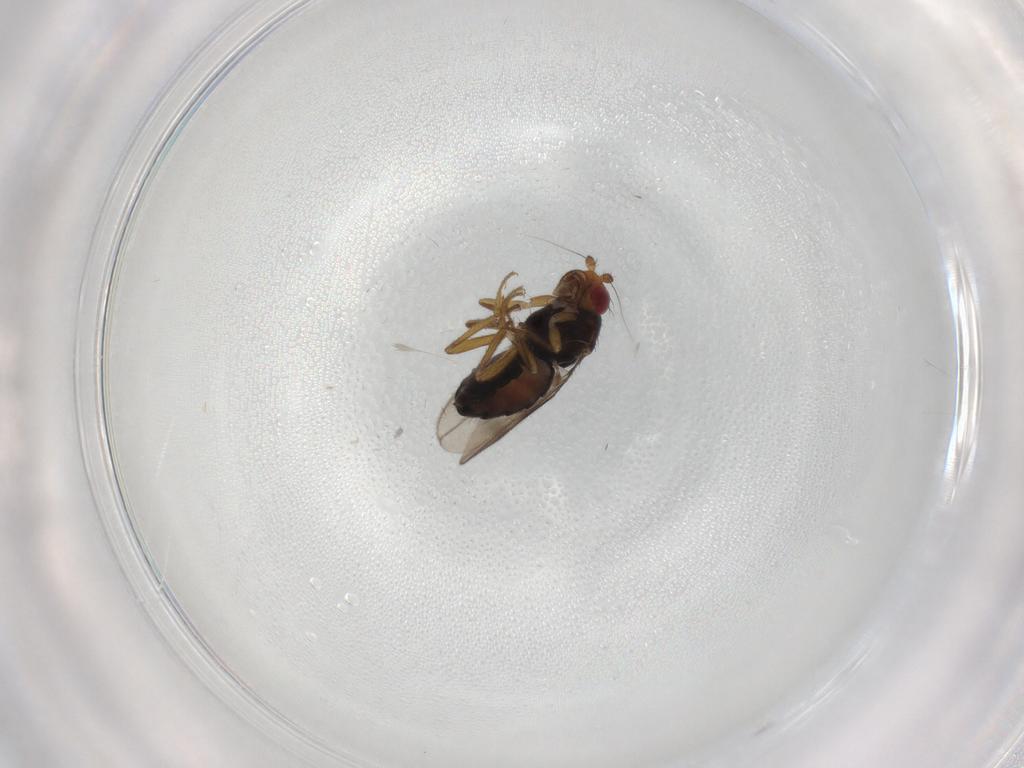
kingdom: Animalia
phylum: Arthropoda
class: Insecta
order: Diptera
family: Sphaeroceridae
